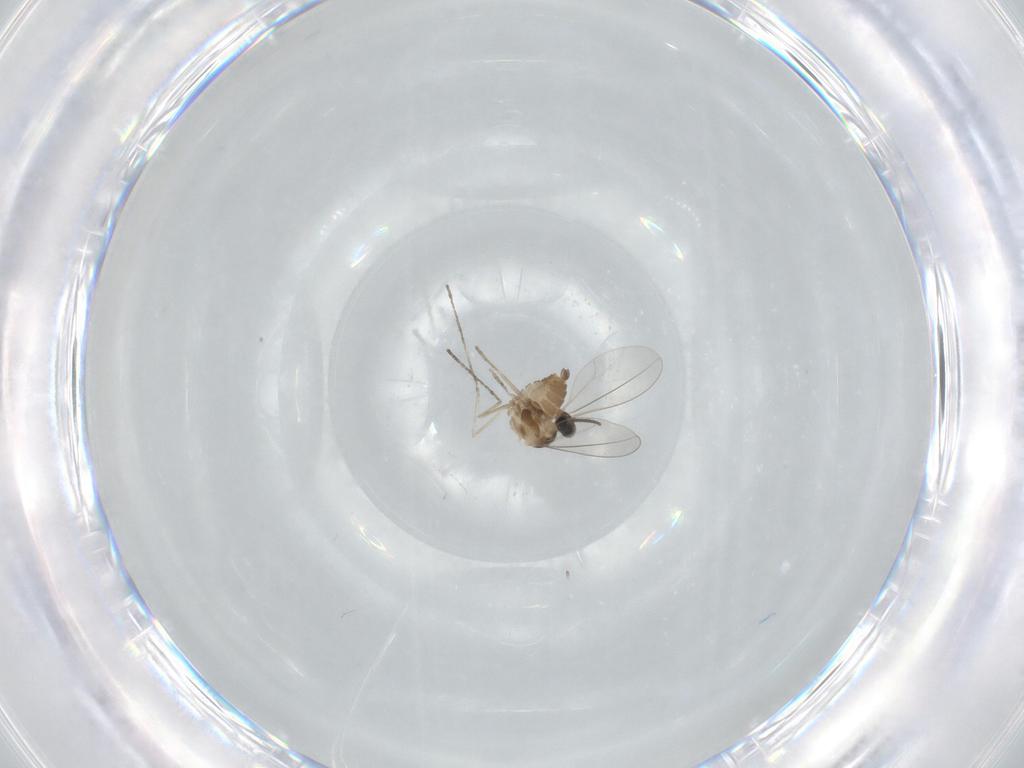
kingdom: Animalia
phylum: Arthropoda
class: Insecta
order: Diptera
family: Cecidomyiidae
